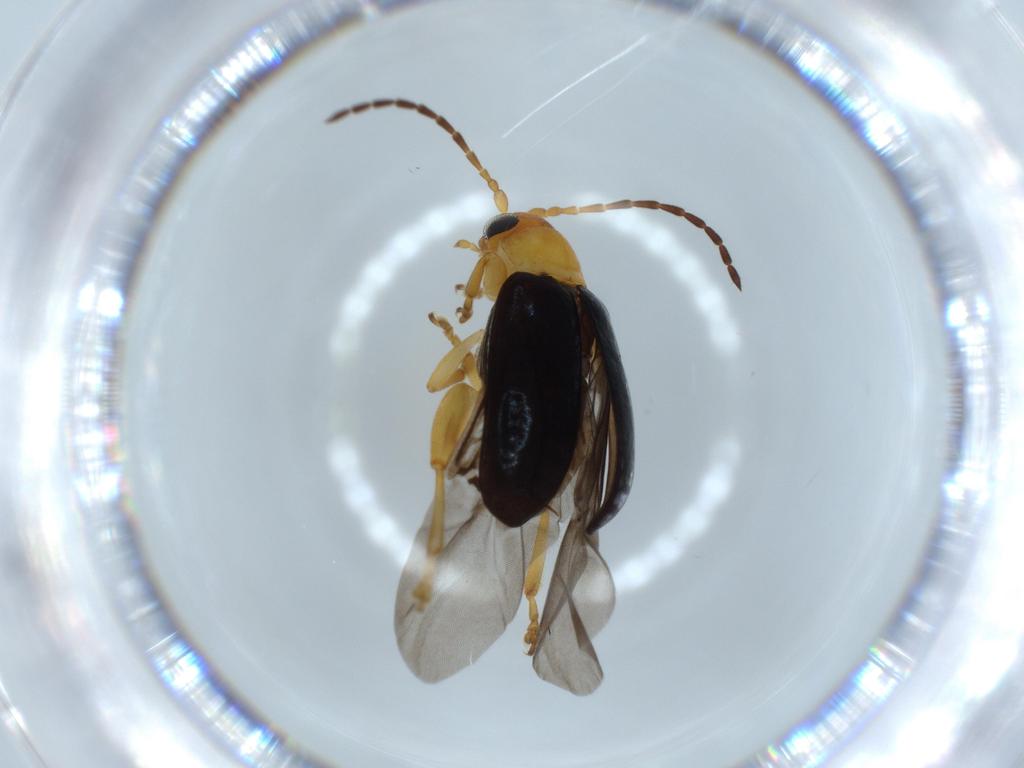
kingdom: Animalia
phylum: Arthropoda
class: Insecta
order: Coleoptera
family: Chrysomelidae
